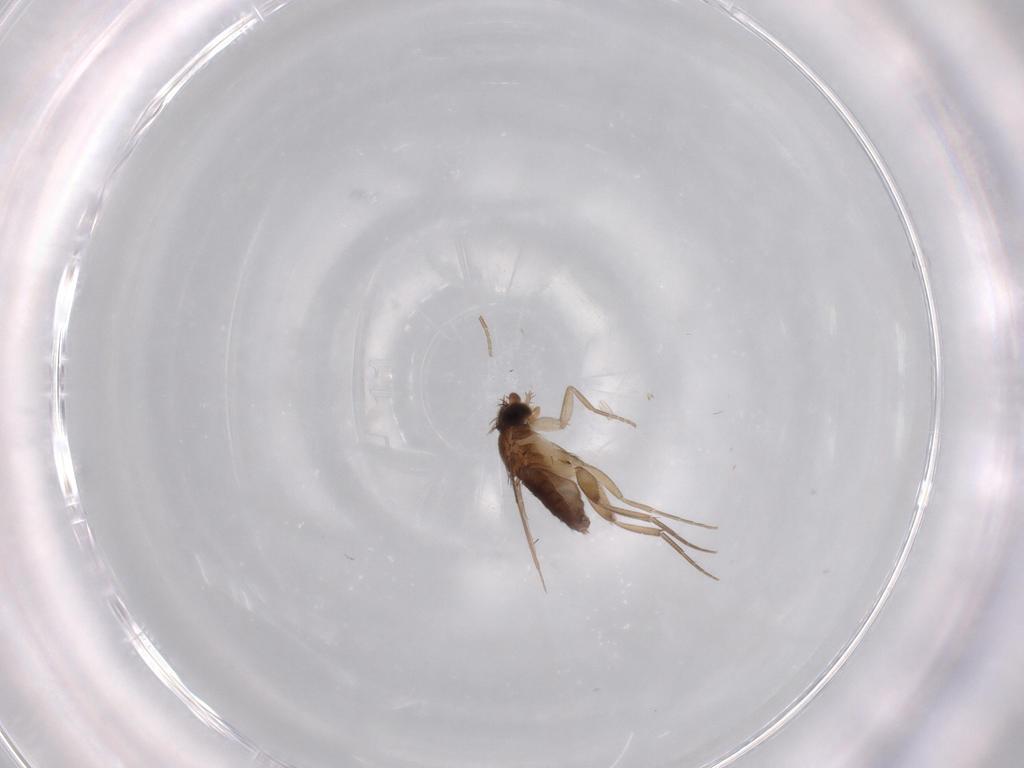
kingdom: Animalia
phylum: Arthropoda
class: Insecta
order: Diptera
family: Phoridae
